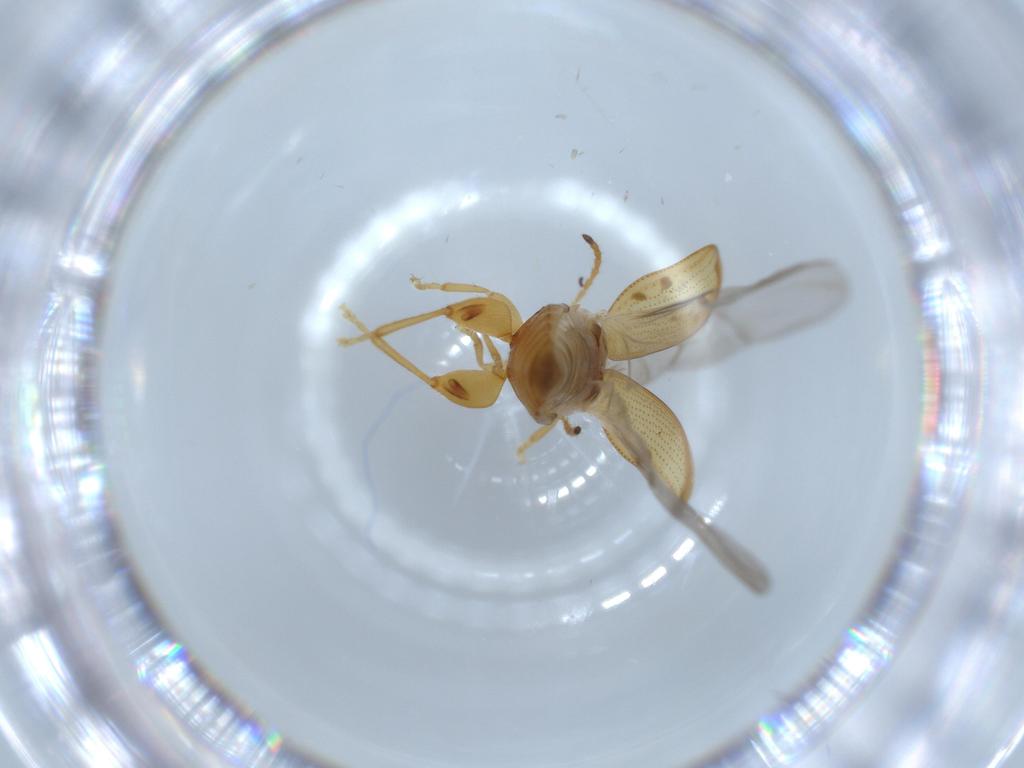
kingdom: Animalia
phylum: Arthropoda
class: Insecta
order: Coleoptera
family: Chrysomelidae
